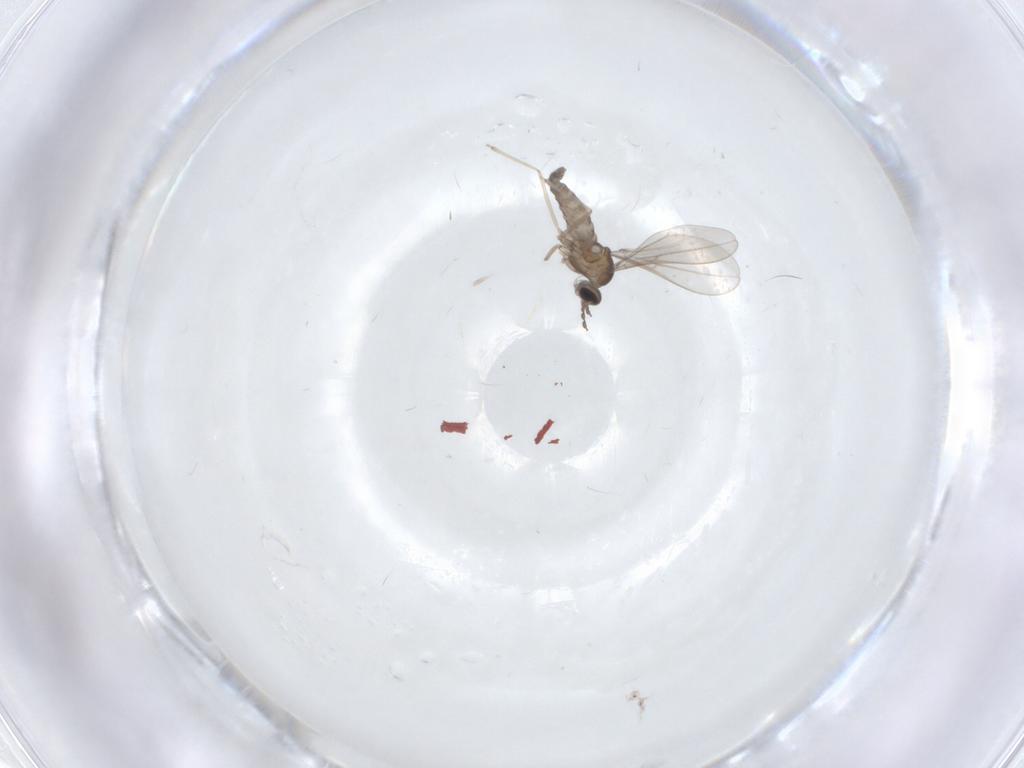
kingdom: Animalia
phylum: Arthropoda
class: Insecta
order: Diptera
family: Cecidomyiidae
